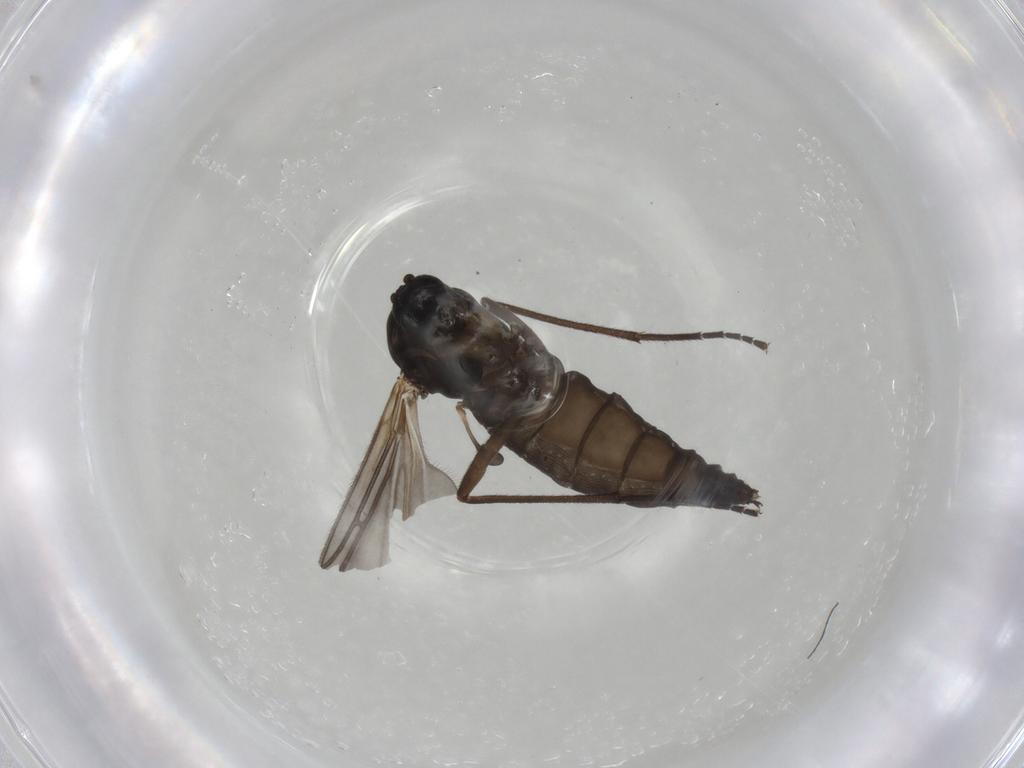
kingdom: Animalia
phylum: Arthropoda
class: Insecta
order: Diptera
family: Sciaridae
